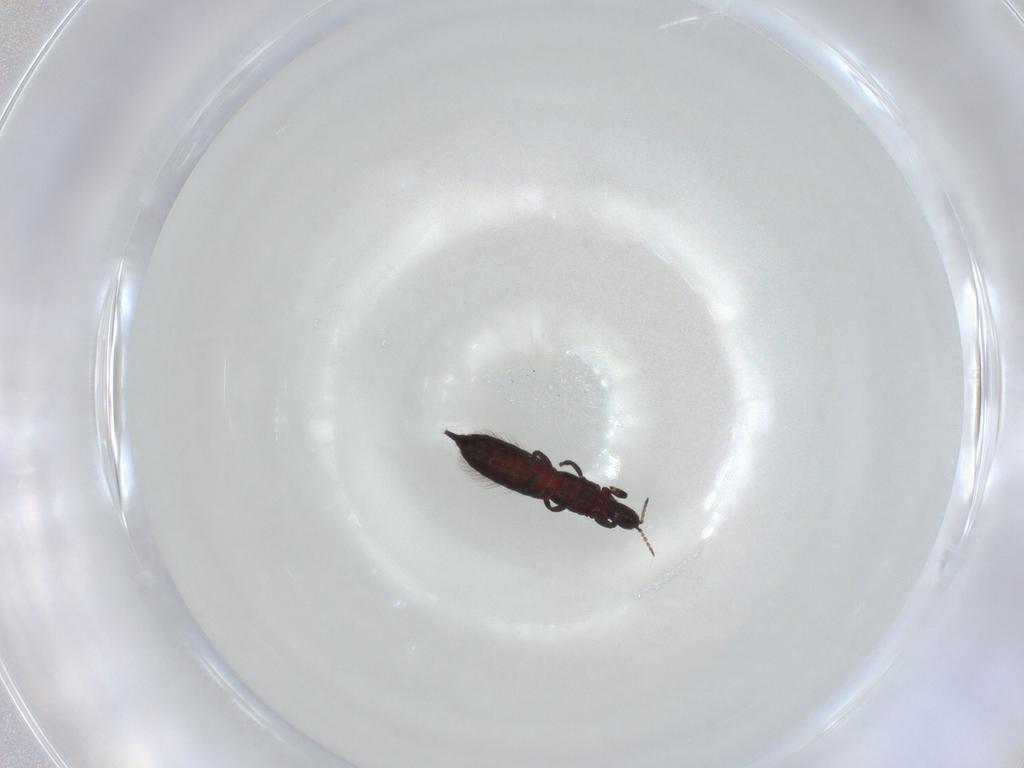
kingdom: Animalia
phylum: Arthropoda
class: Insecta
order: Thysanoptera
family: Phlaeothripidae
